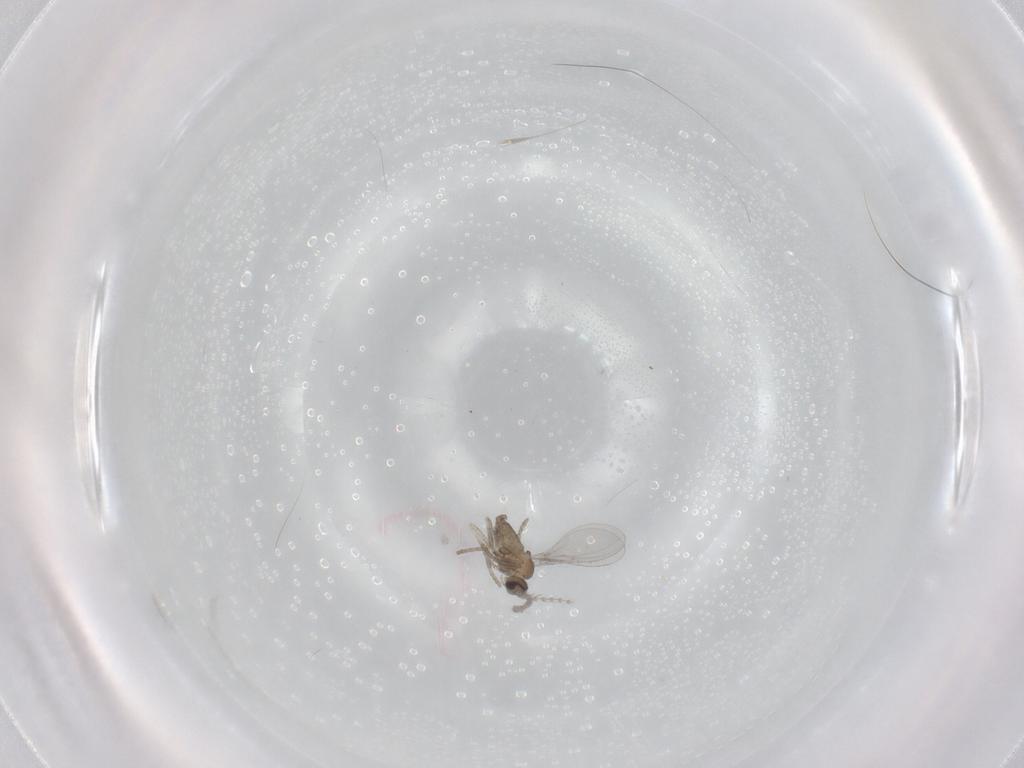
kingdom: Animalia
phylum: Arthropoda
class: Insecta
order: Diptera
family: Cecidomyiidae
